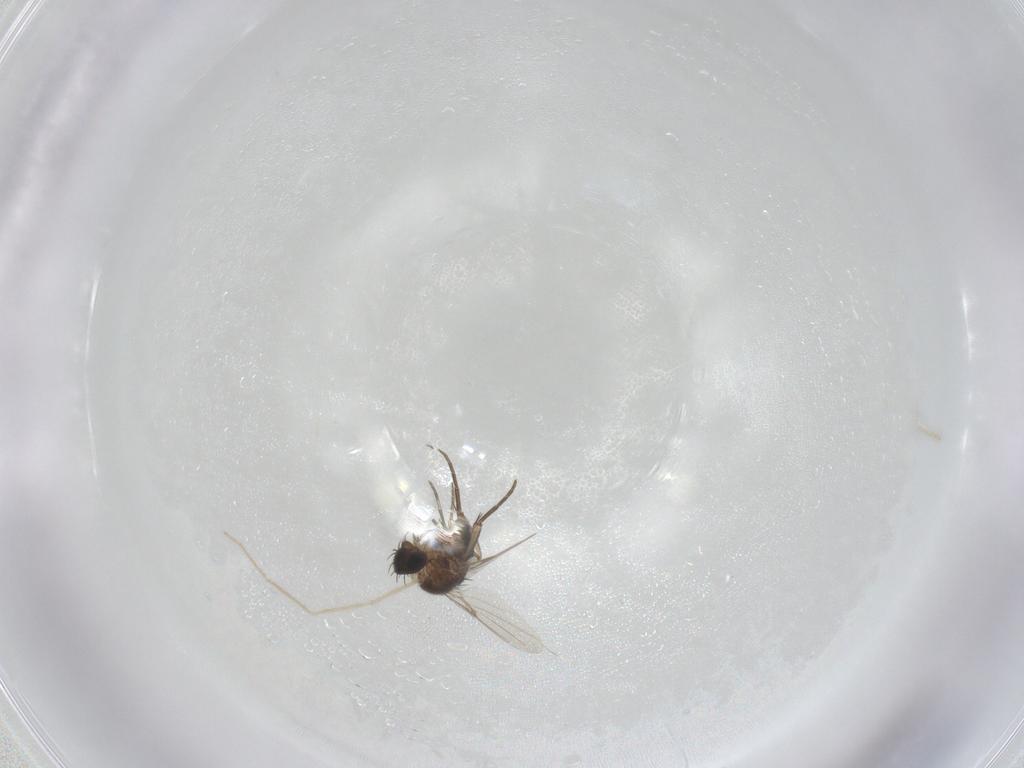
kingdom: Animalia
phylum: Arthropoda
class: Insecta
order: Diptera
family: Phoridae
